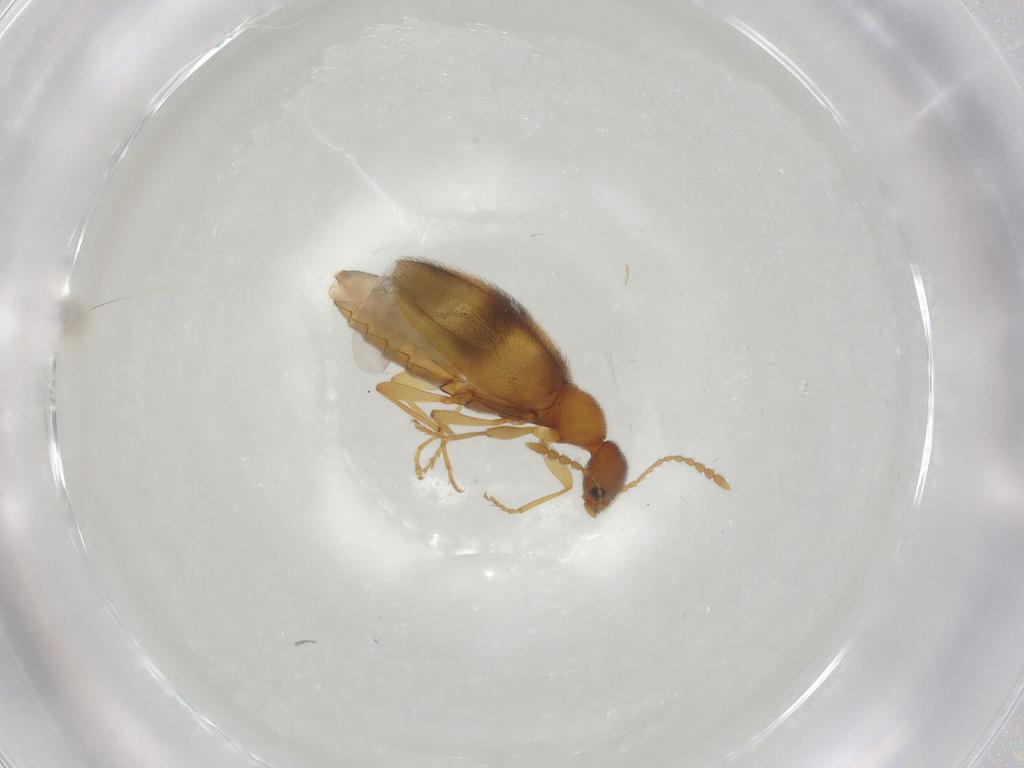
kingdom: Animalia
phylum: Arthropoda
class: Insecta
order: Coleoptera
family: Anthicidae
